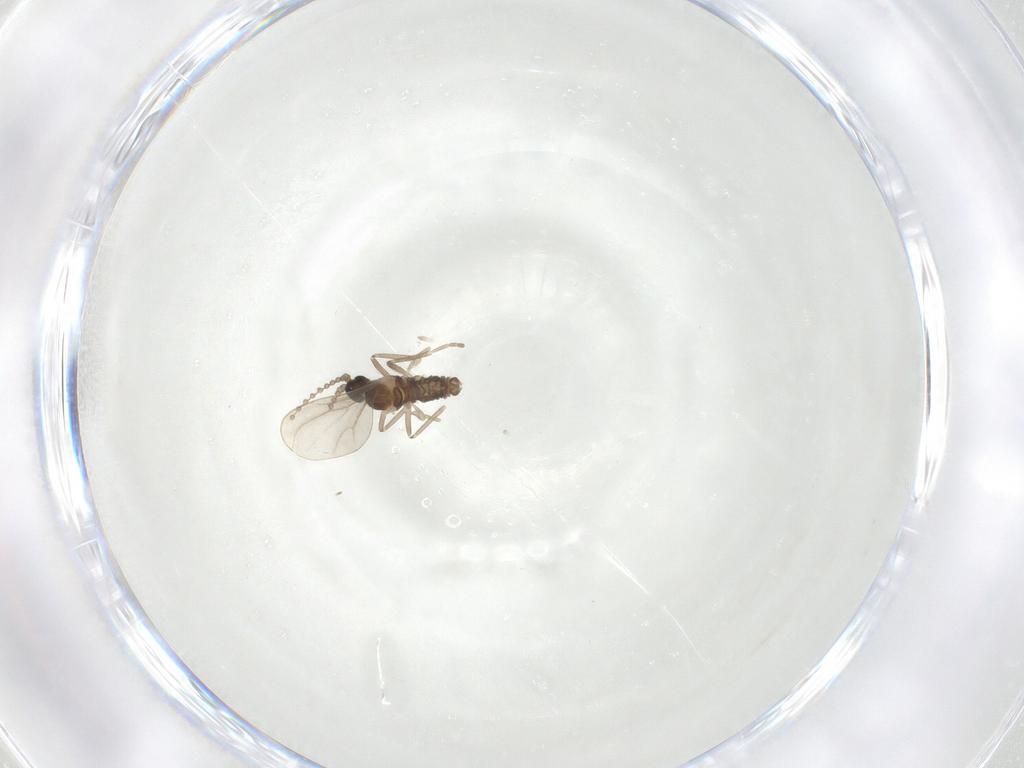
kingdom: Animalia
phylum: Arthropoda
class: Insecta
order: Diptera
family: Cecidomyiidae
